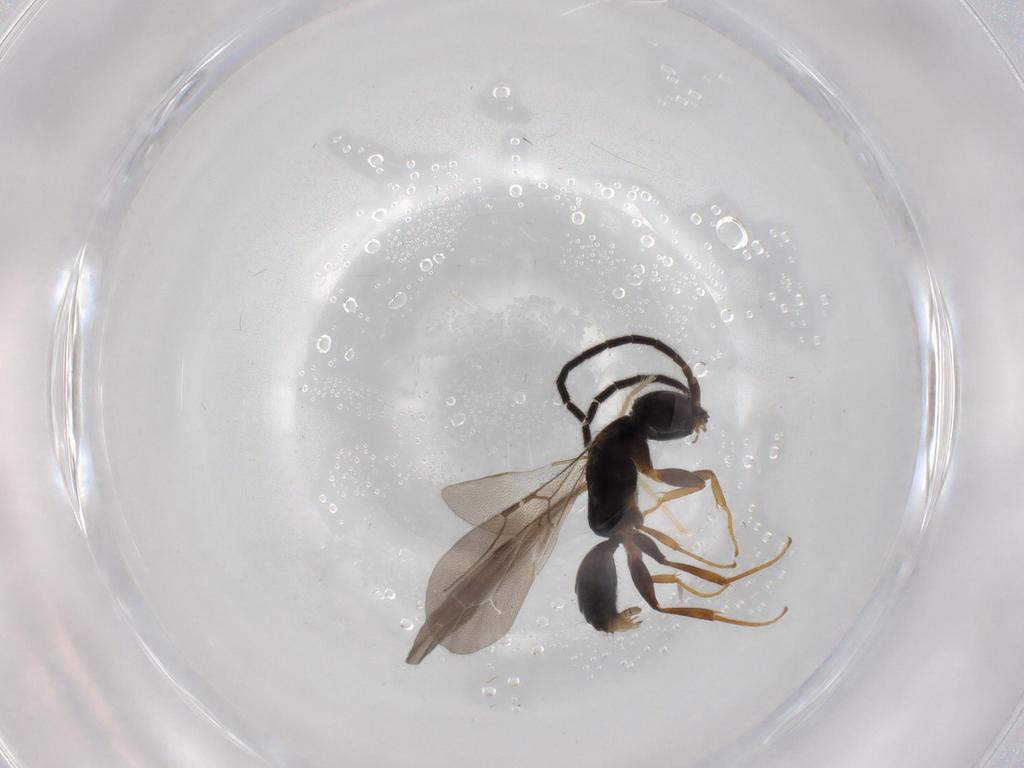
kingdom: Animalia
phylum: Arthropoda
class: Insecta
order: Hymenoptera
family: Bethylidae
